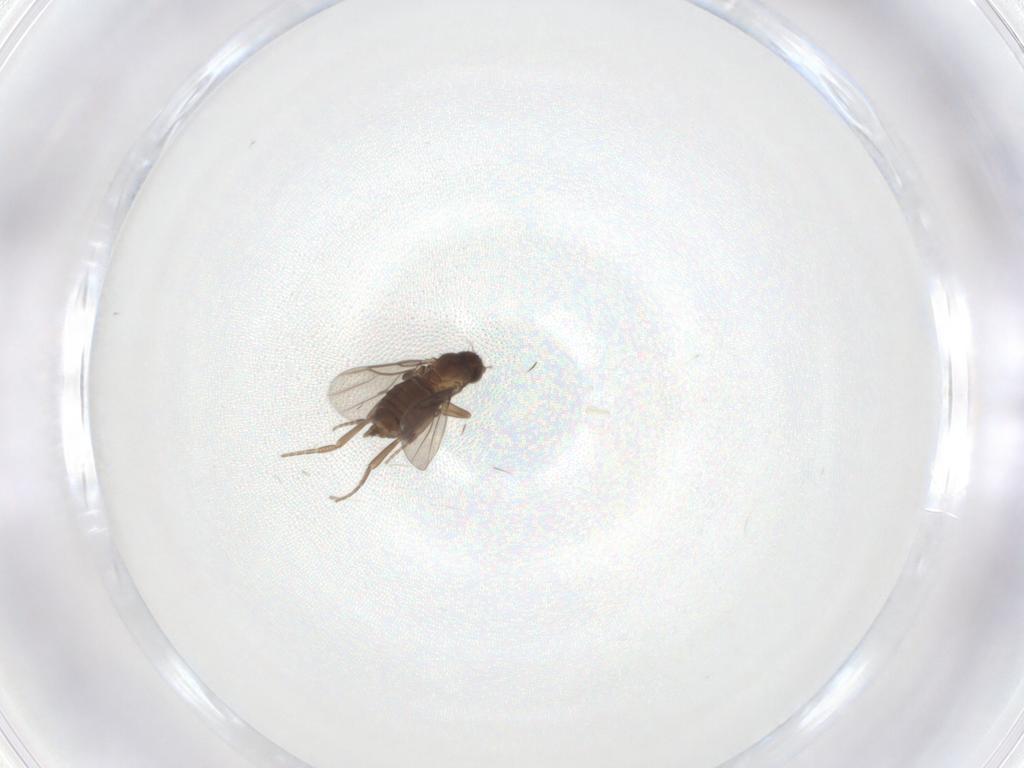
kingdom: Animalia
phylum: Arthropoda
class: Insecta
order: Diptera
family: Phoridae
